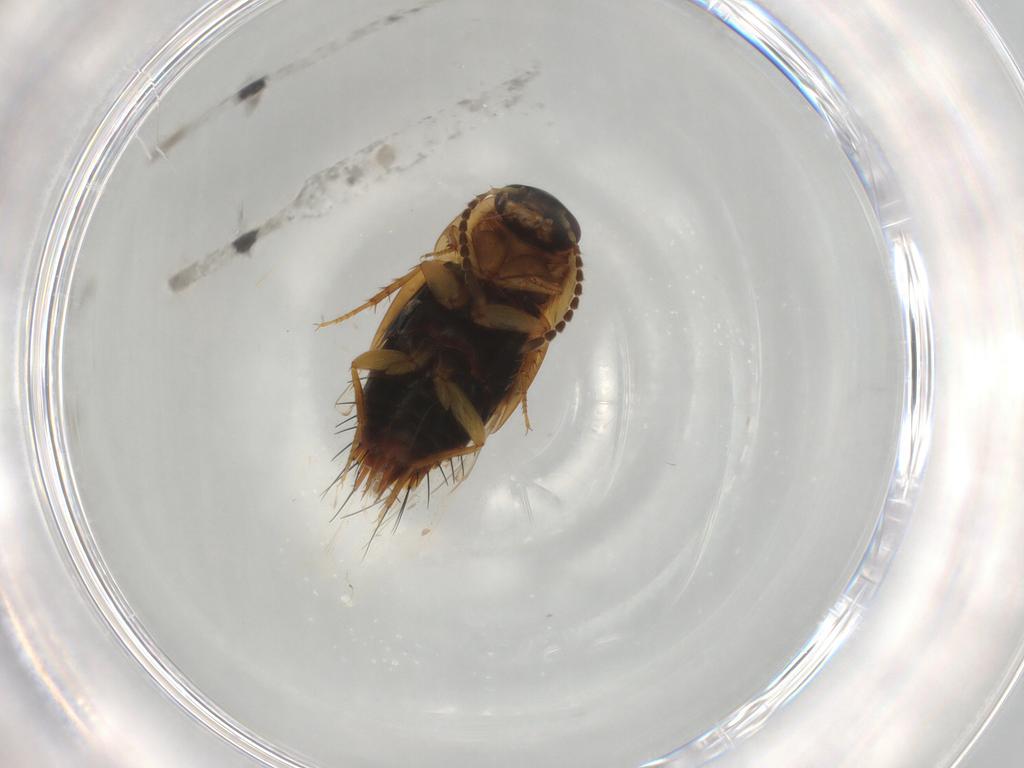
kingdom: Animalia
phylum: Arthropoda
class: Insecta
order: Coleoptera
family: Staphylinidae
